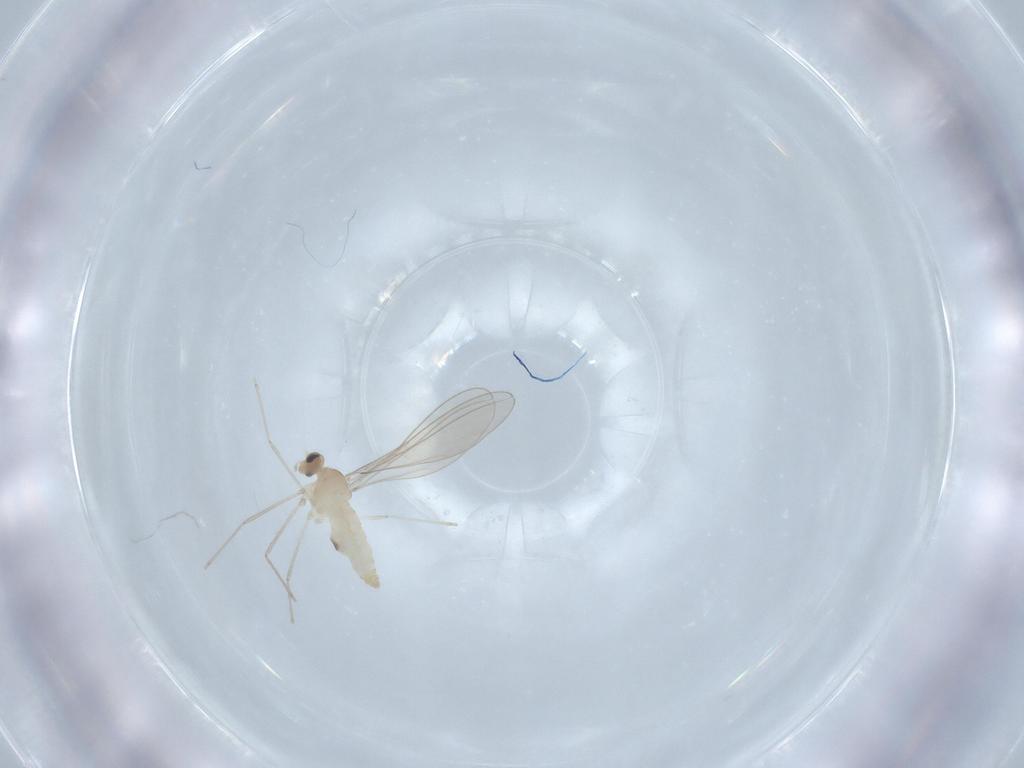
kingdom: Animalia
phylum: Arthropoda
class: Insecta
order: Diptera
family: Cecidomyiidae
